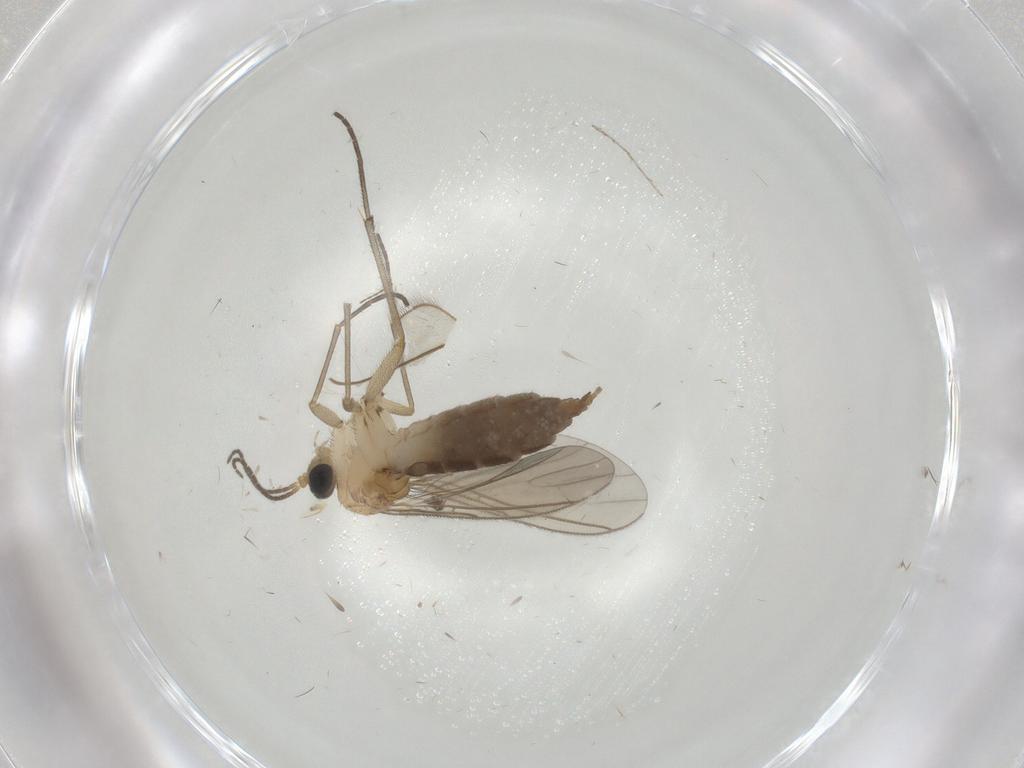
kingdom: Animalia
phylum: Arthropoda
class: Insecta
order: Diptera
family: Limoniidae
